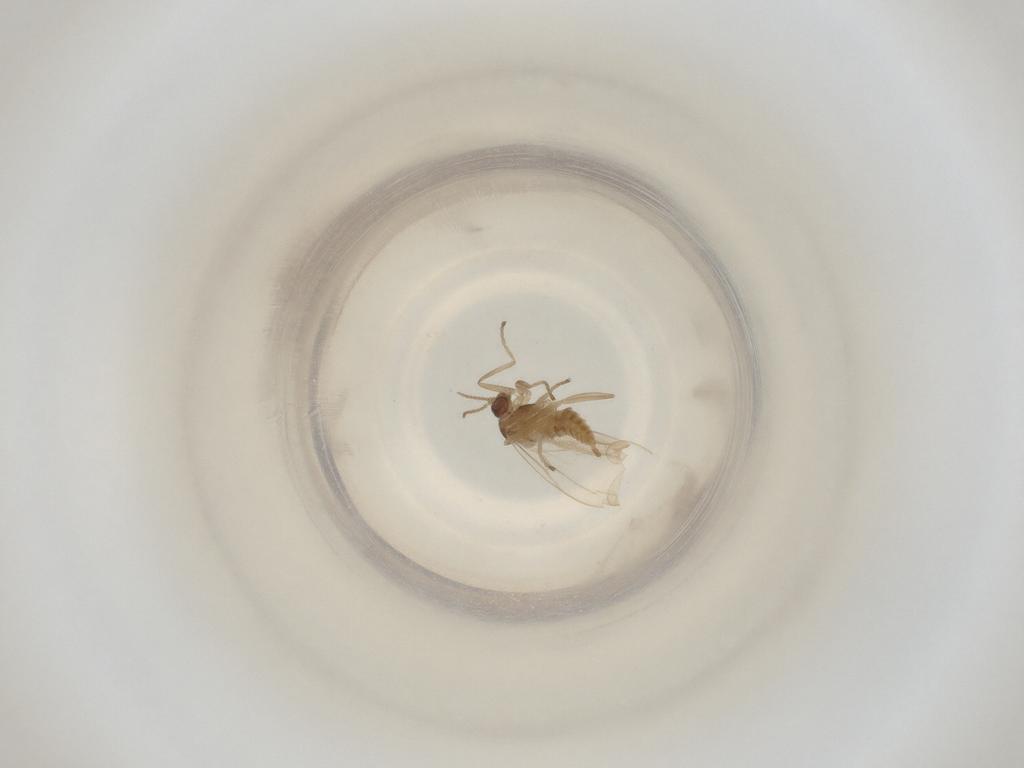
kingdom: Animalia
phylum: Arthropoda
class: Insecta
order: Diptera
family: Cecidomyiidae
